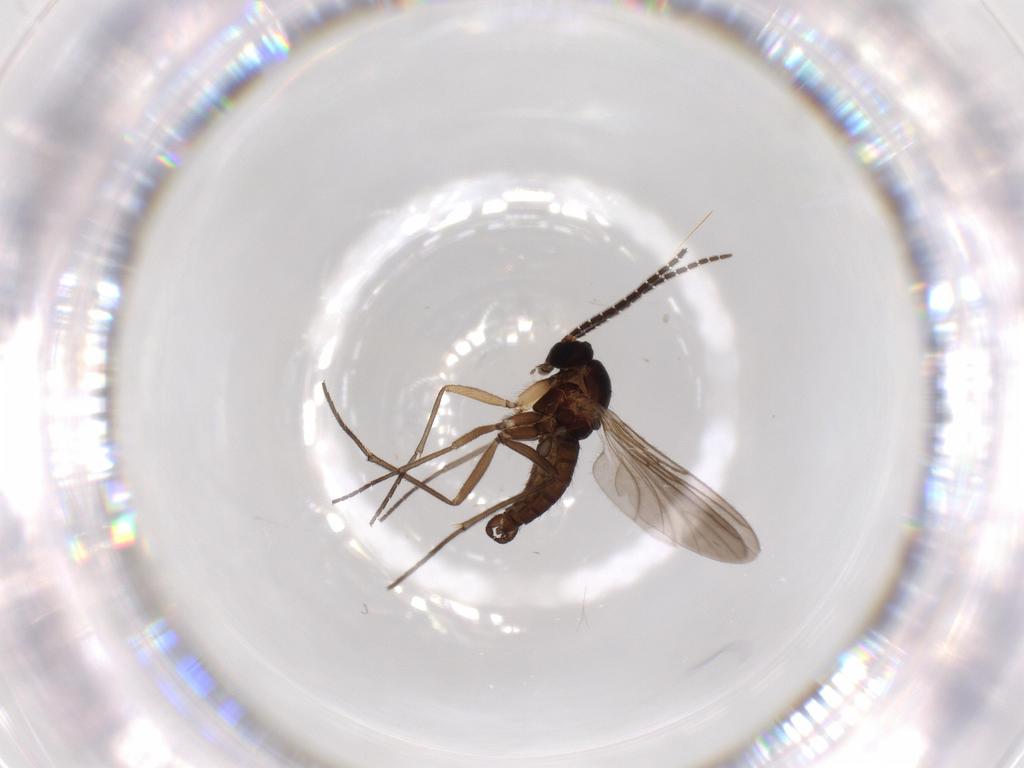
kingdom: Animalia
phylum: Arthropoda
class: Insecta
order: Diptera
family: Sciaridae
